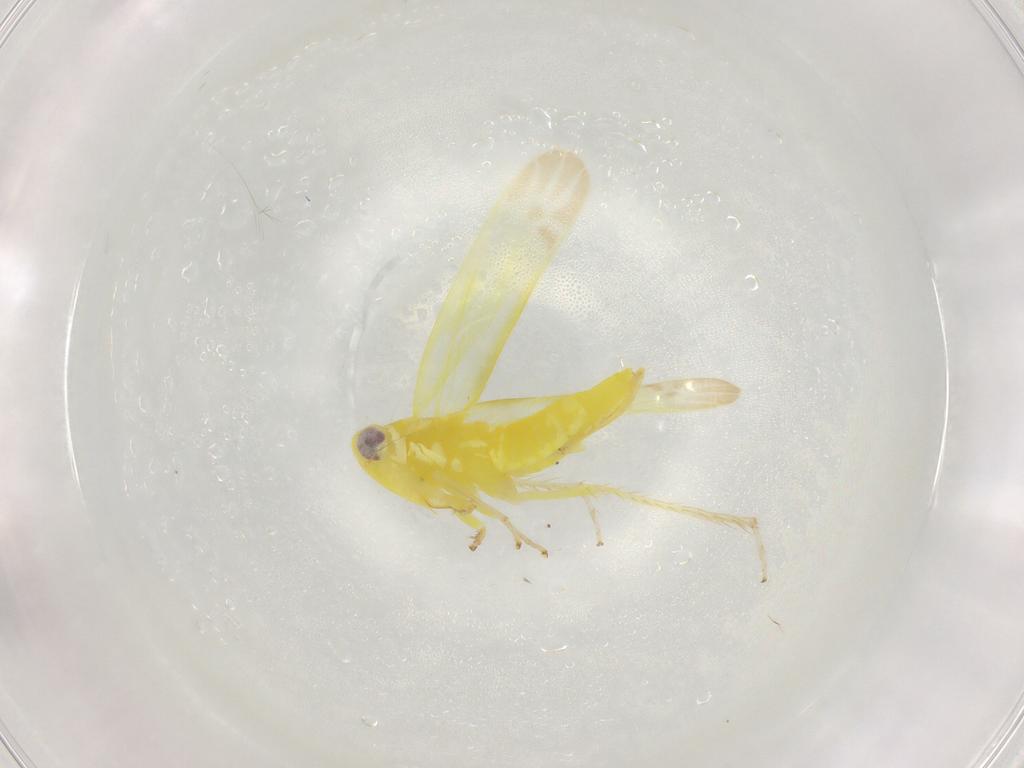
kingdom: Animalia
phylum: Arthropoda
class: Insecta
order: Hemiptera
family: Cicadellidae
